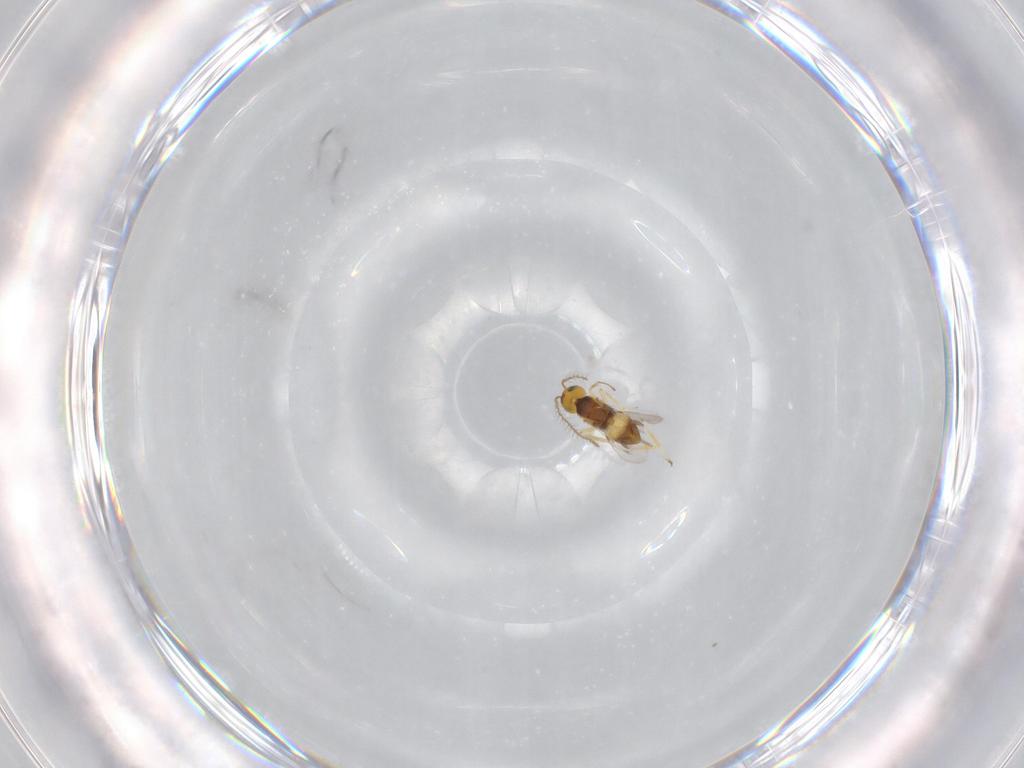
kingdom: Animalia
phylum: Arthropoda
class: Insecta
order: Hymenoptera
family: Encyrtidae
